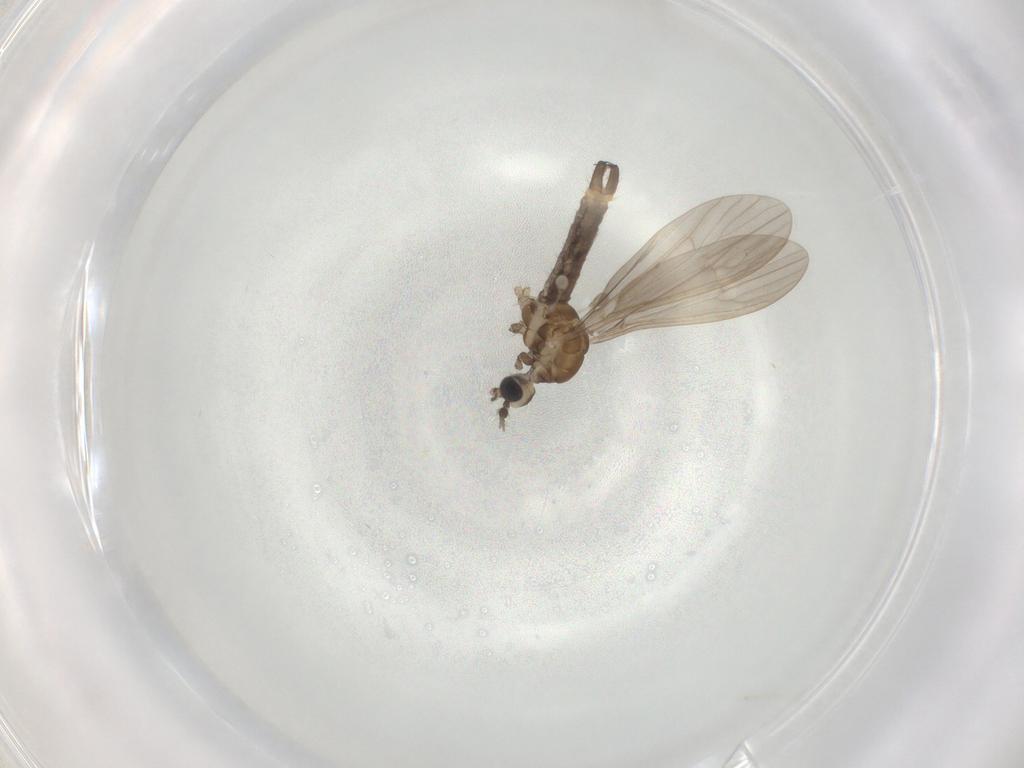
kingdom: Animalia
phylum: Arthropoda
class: Insecta
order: Diptera
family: Limoniidae
